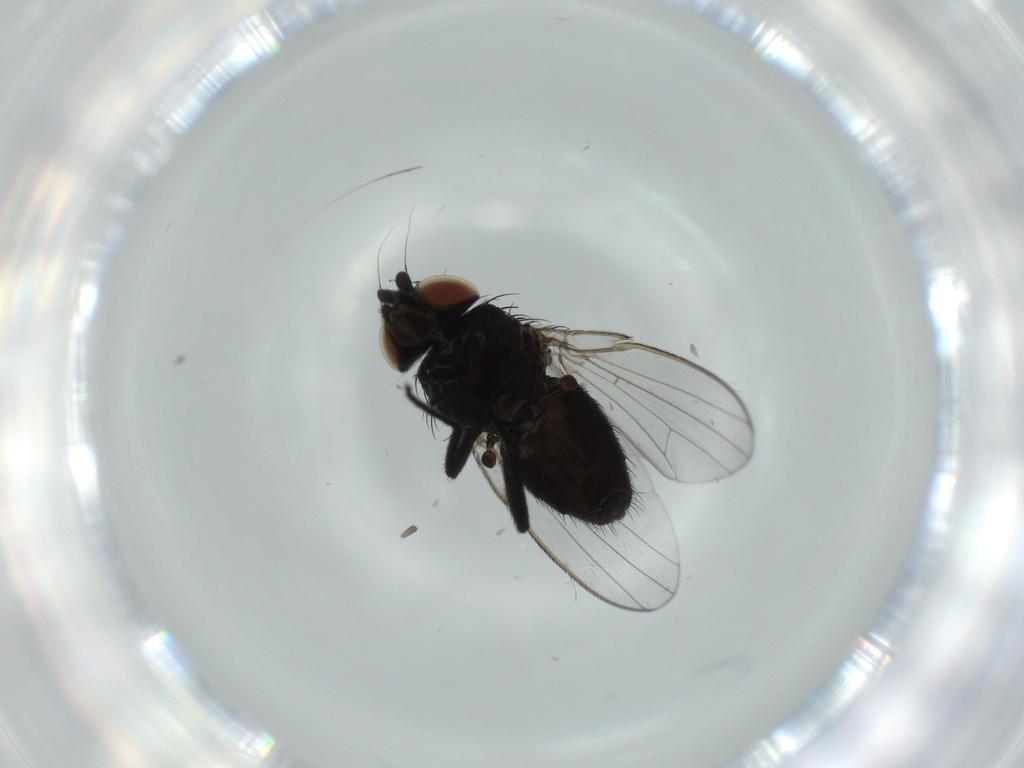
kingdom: Animalia
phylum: Arthropoda
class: Insecta
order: Diptera
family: Milichiidae
